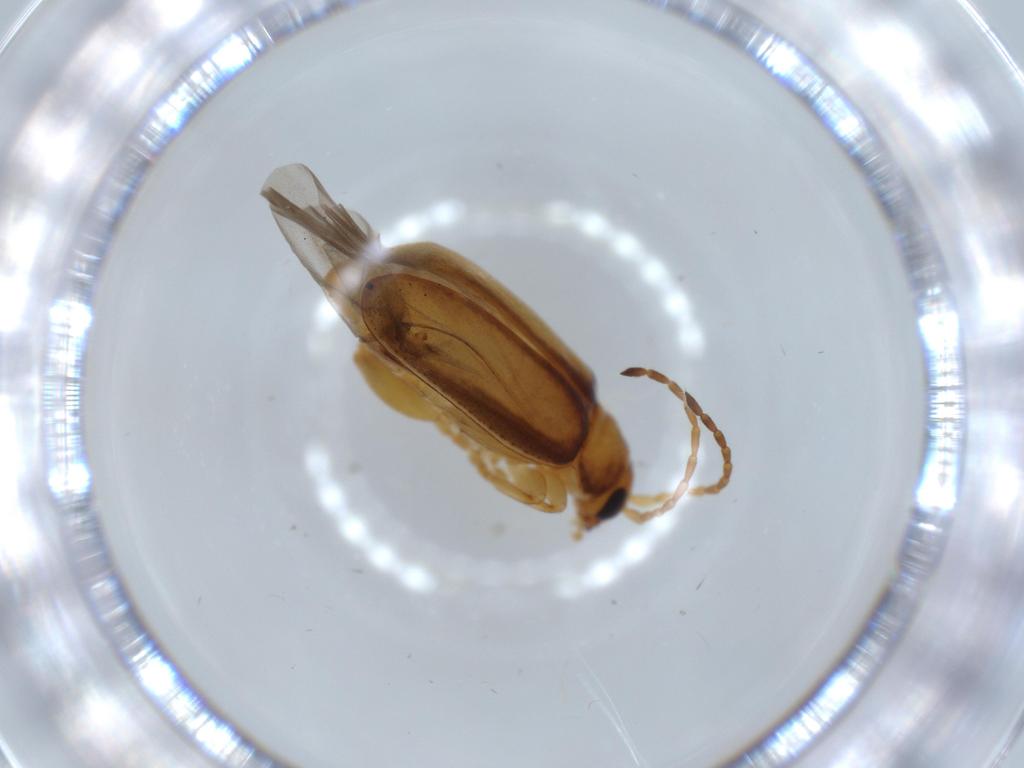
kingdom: Animalia
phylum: Arthropoda
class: Insecta
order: Coleoptera
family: Chrysomelidae
